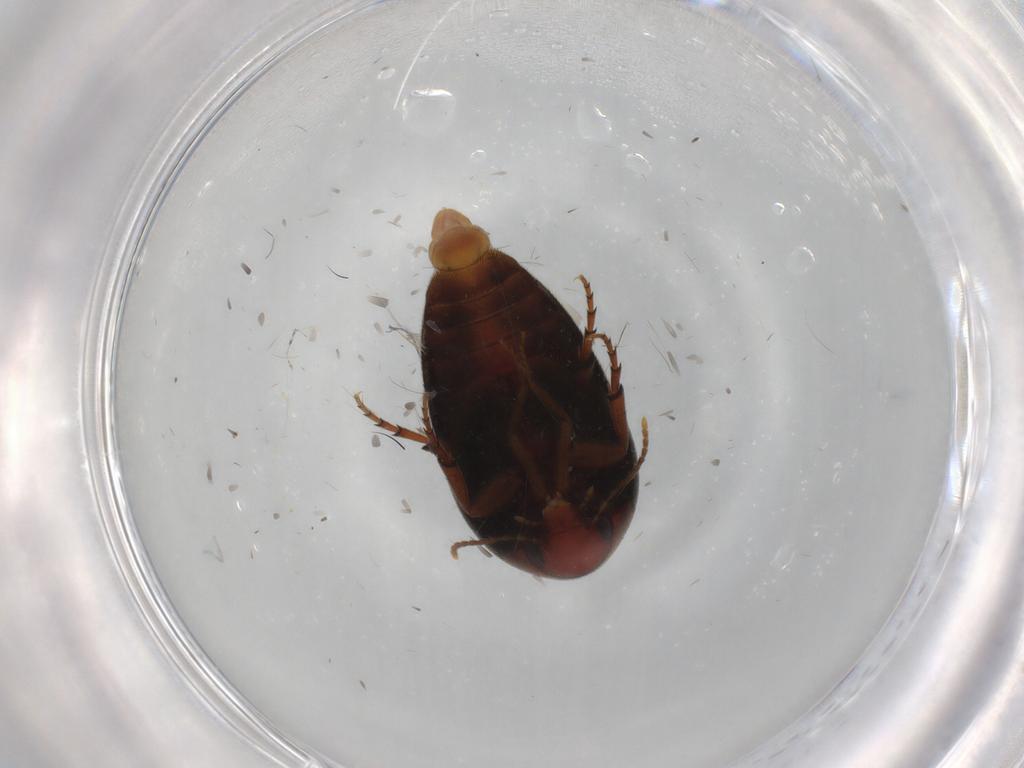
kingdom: Animalia
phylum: Arthropoda
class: Insecta
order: Coleoptera
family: Eucinetidae
